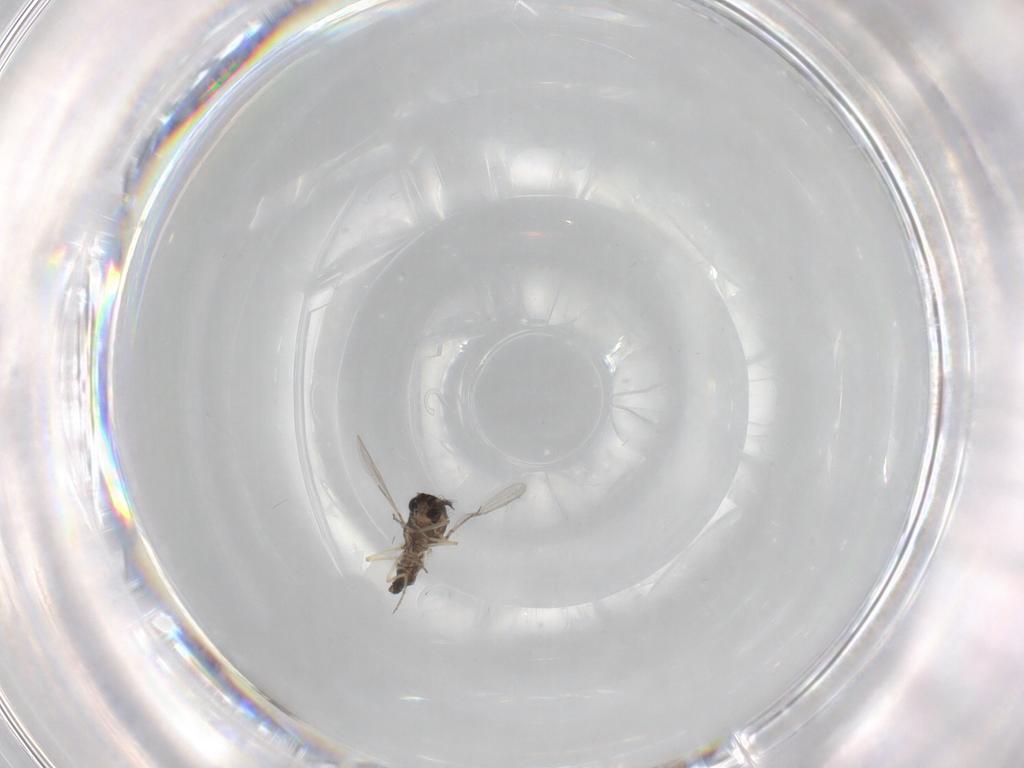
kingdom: Animalia
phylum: Arthropoda
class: Insecta
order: Diptera
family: Ceratopogonidae
